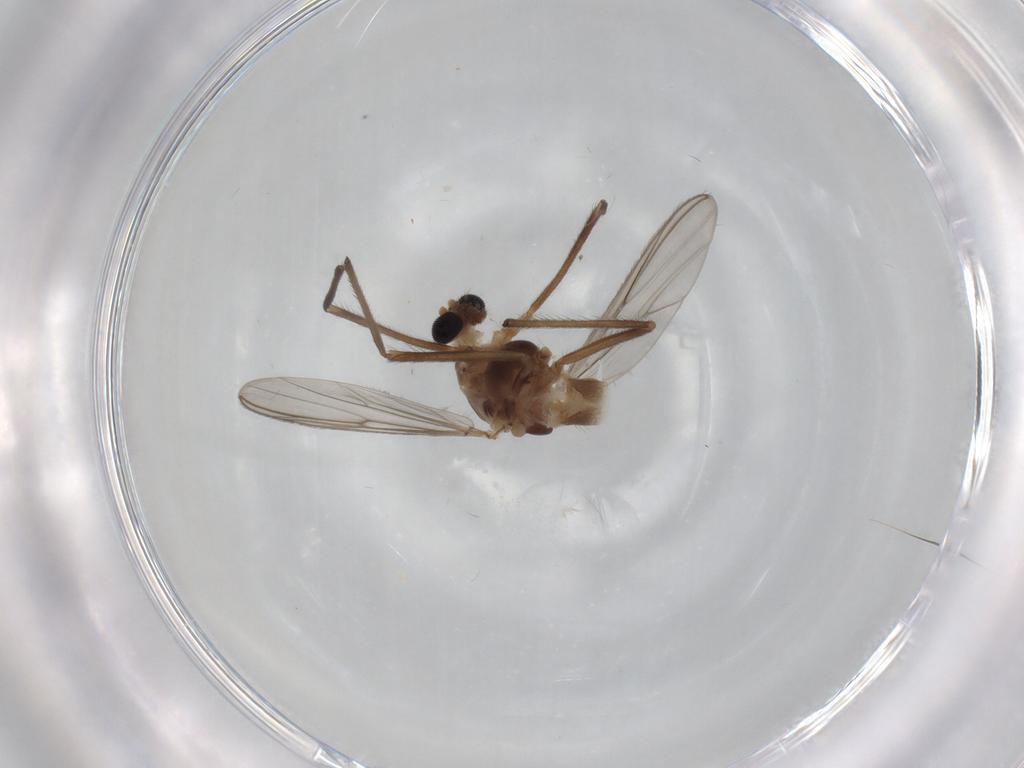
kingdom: Animalia
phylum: Arthropoda
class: Insecta
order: Diptera
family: Chironomidae
